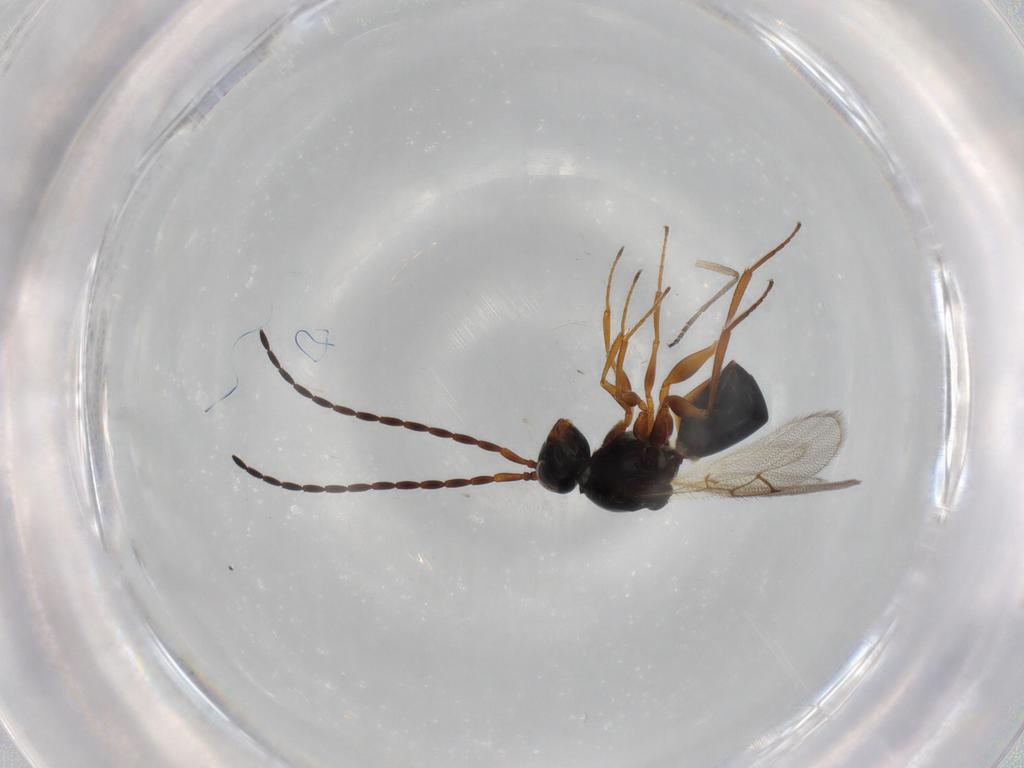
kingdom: Animalia
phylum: Arthropoda
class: Insecta
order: Hymenoptera
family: Figitidae
